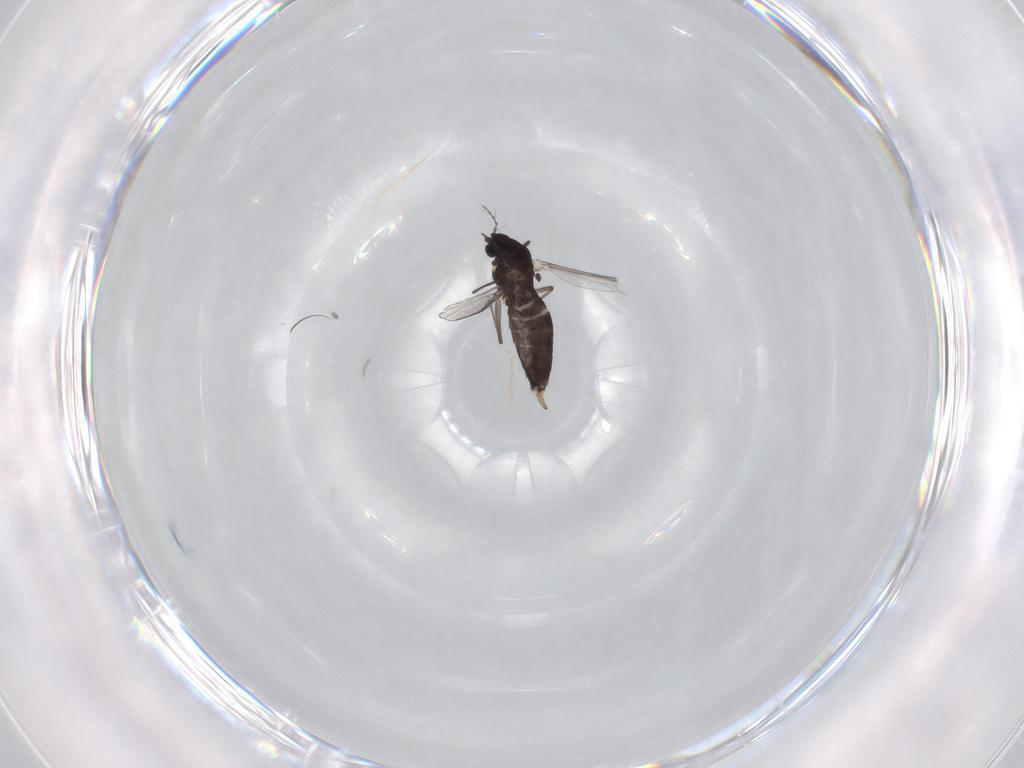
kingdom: Animalia
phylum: Arthropoda
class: Insecta
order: Diptera
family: Chironomidae
